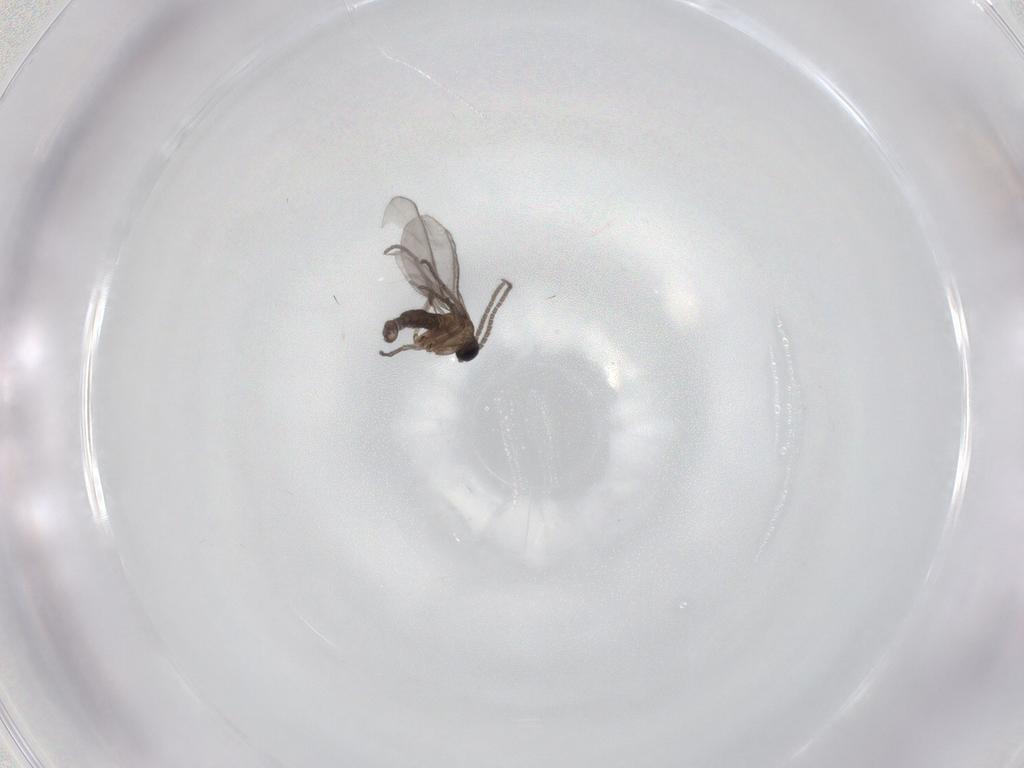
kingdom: Animalia
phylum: Arthropoda
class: Insecta
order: Diptera
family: Sciaridae
